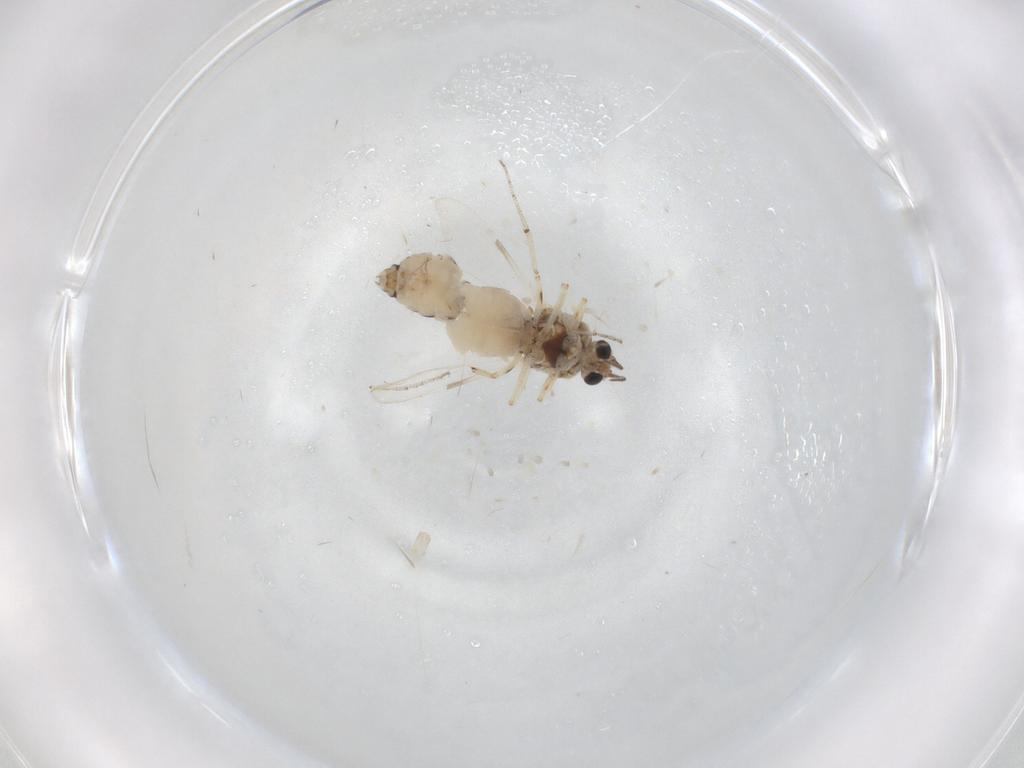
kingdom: Animalia
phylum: Arthropoda
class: Insecta
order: Diptera
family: Ceratopogonidae
